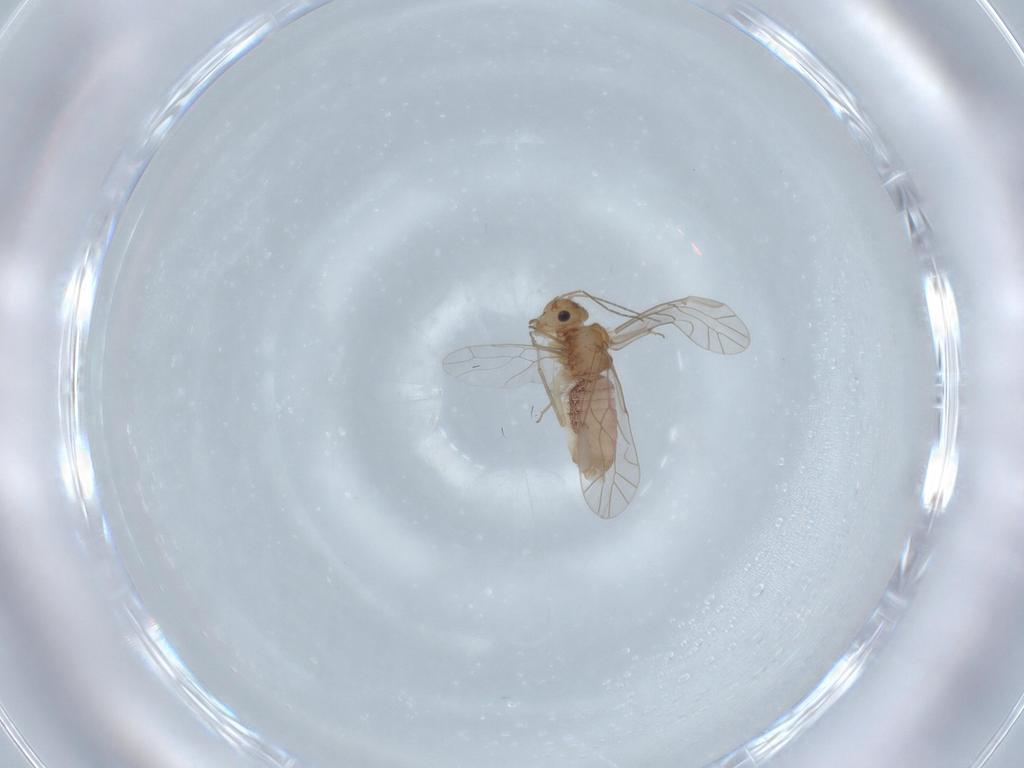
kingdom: Animalia
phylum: Arthropoda
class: Insecta
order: Psocodea
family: Lachesillidae
